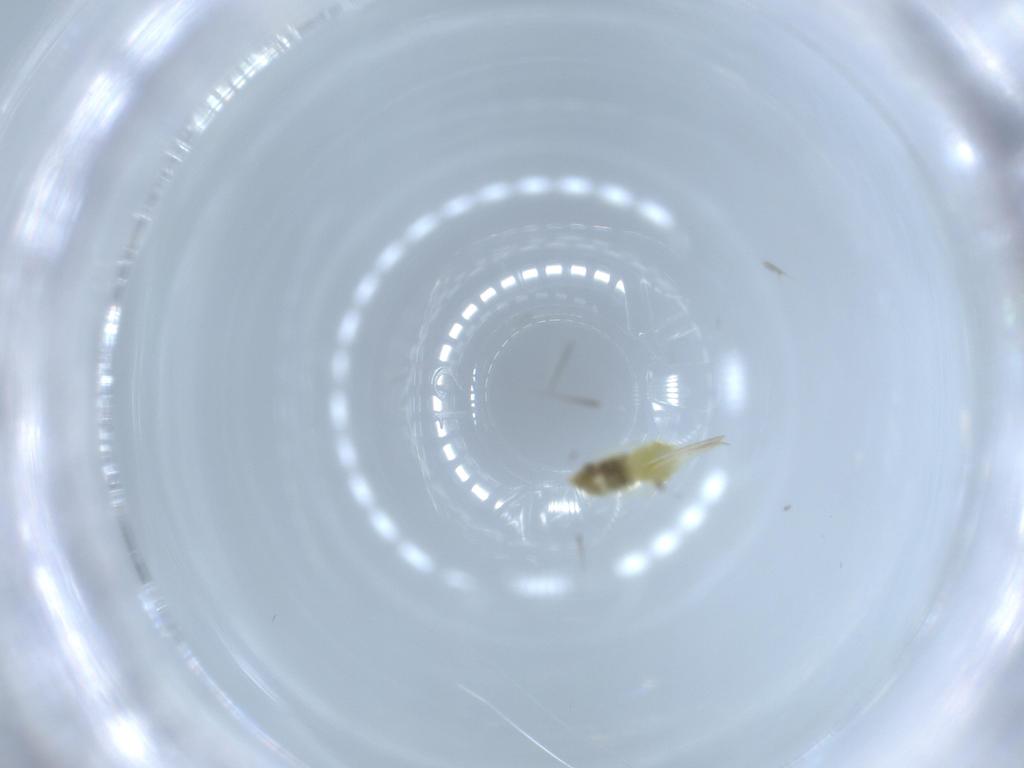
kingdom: Animalia
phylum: Arthropoda
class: Insecta
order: Hemiptera
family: Aleyrodidae
